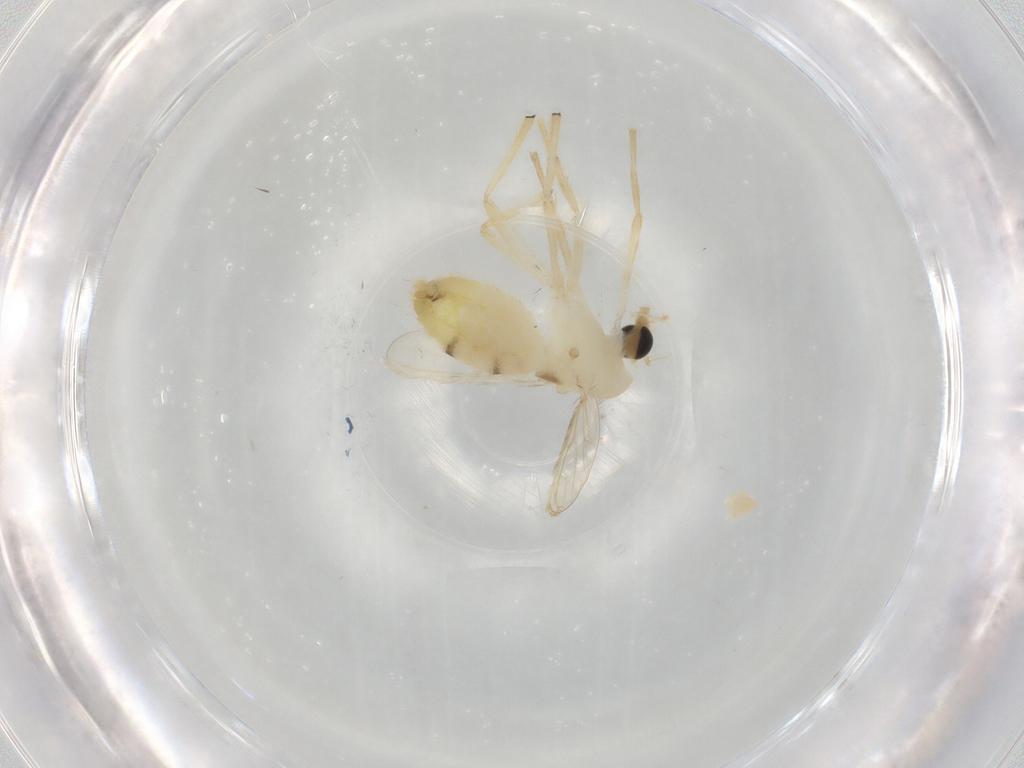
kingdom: Animalia
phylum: Arthropoda
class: Insecta
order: Diptera
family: Chironomidae
